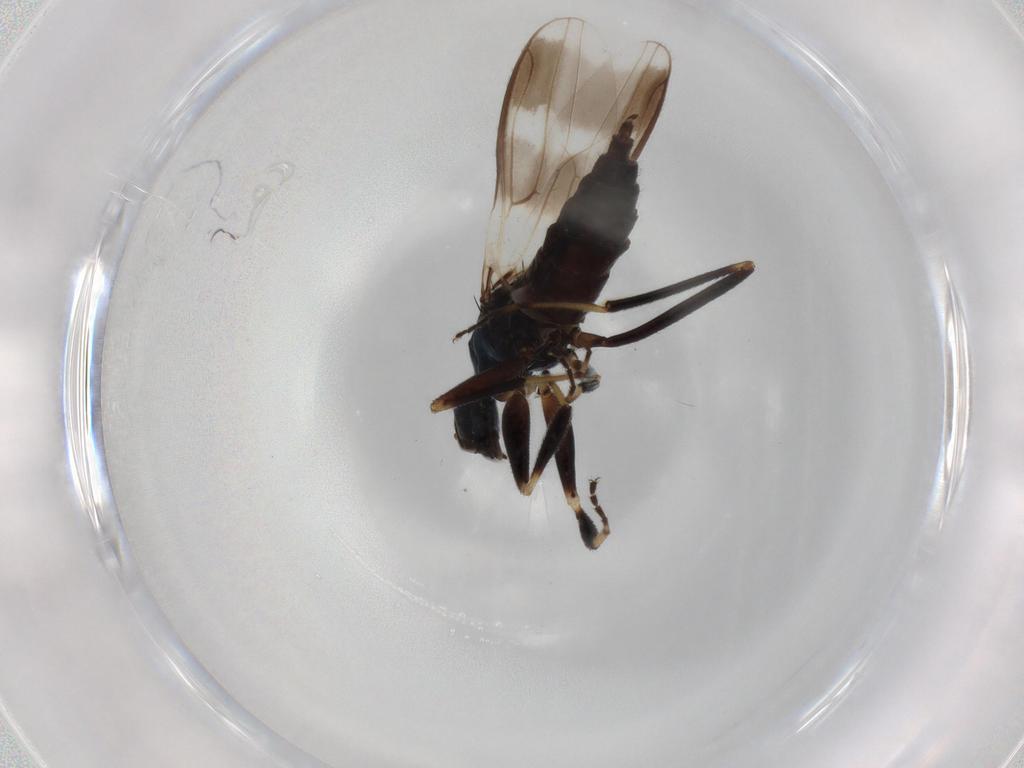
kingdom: Animalia
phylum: Arthropoda
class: Insecta
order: Diptera
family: Hybotidae
